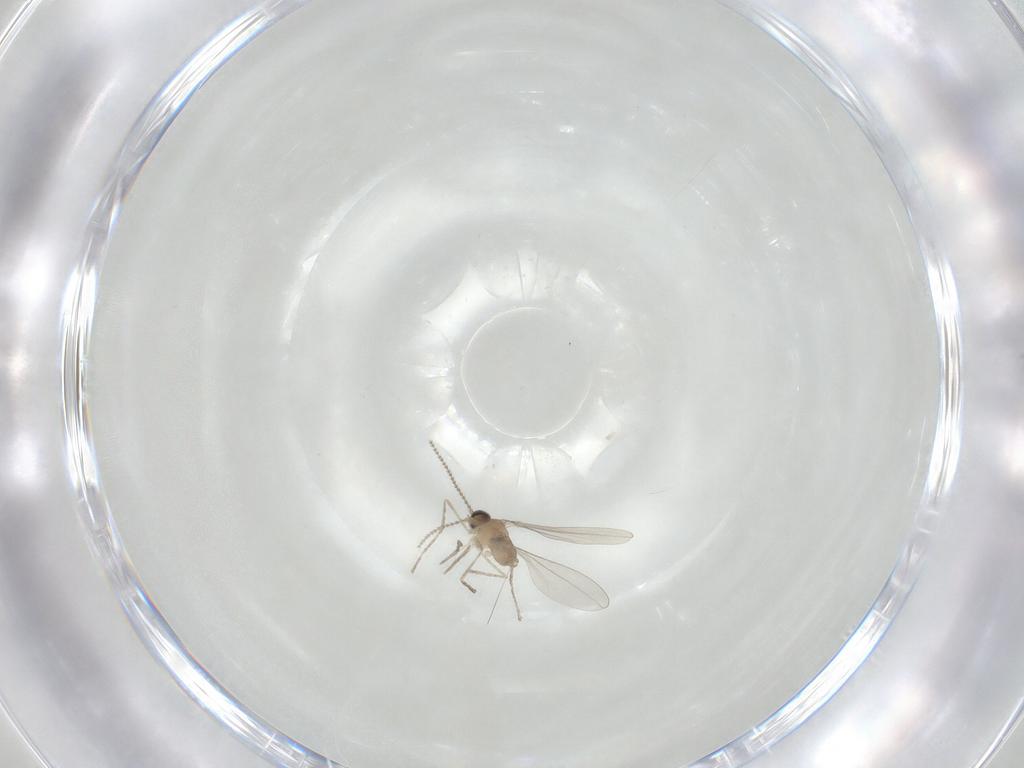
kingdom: Animalia
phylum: Arthropoda
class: Insecta
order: Diptera
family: Cecidomyiidae
